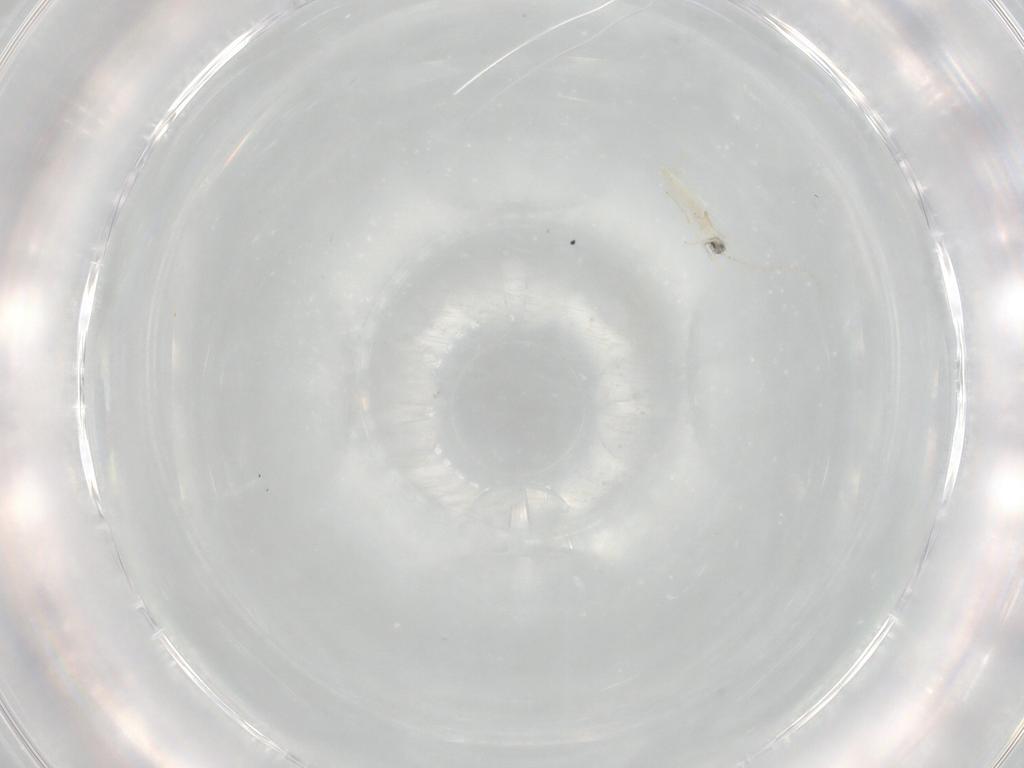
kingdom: Animalia
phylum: Arthropoda
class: Insecta
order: Diptera
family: Cecidomyiidae
